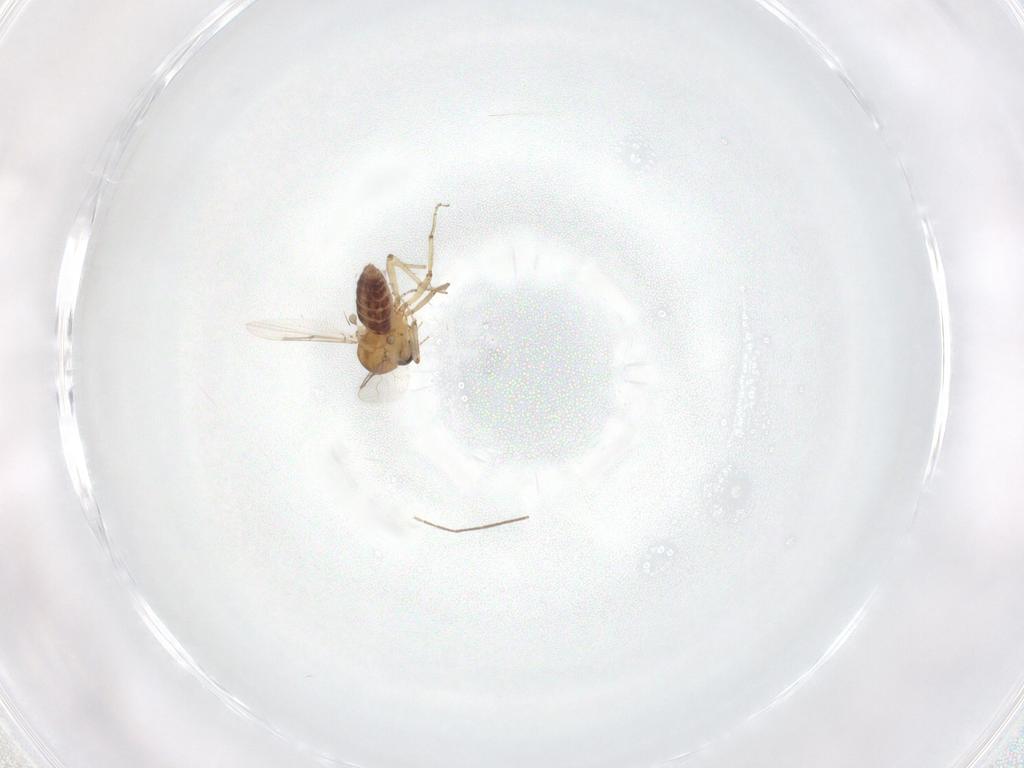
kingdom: Animalia
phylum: Arthropoda
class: Insecta
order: Diptera
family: Ceratopogonidae
